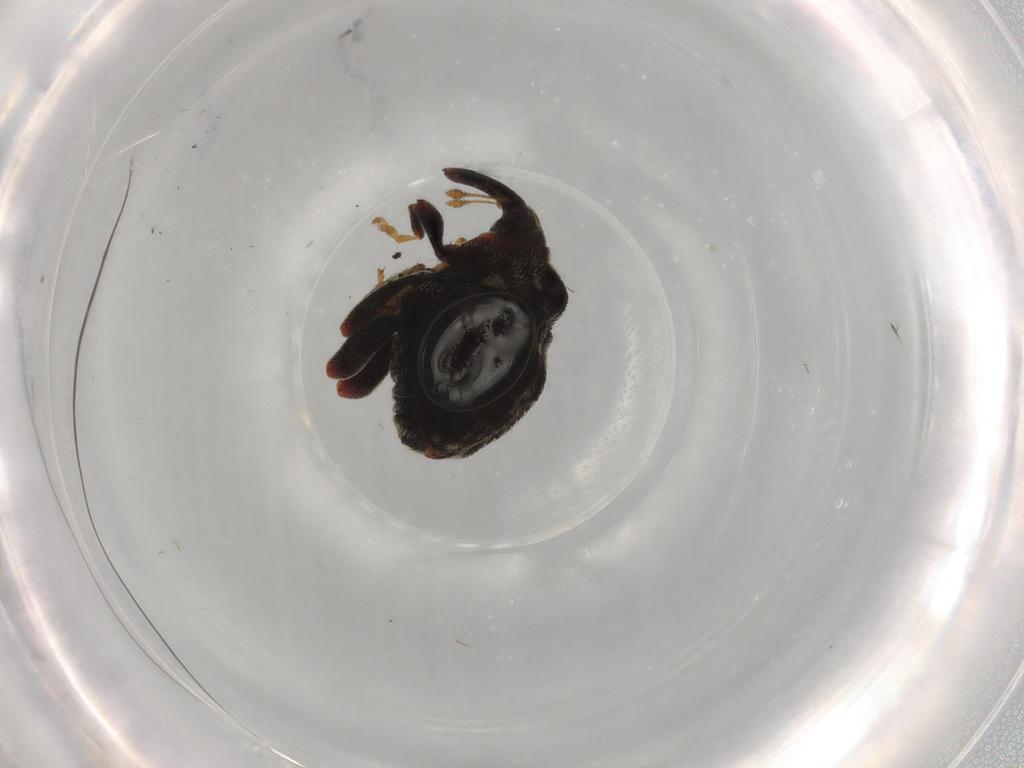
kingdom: Animalia
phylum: Arthropoda
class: Insecta
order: Coleoptera
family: Curculionidae
